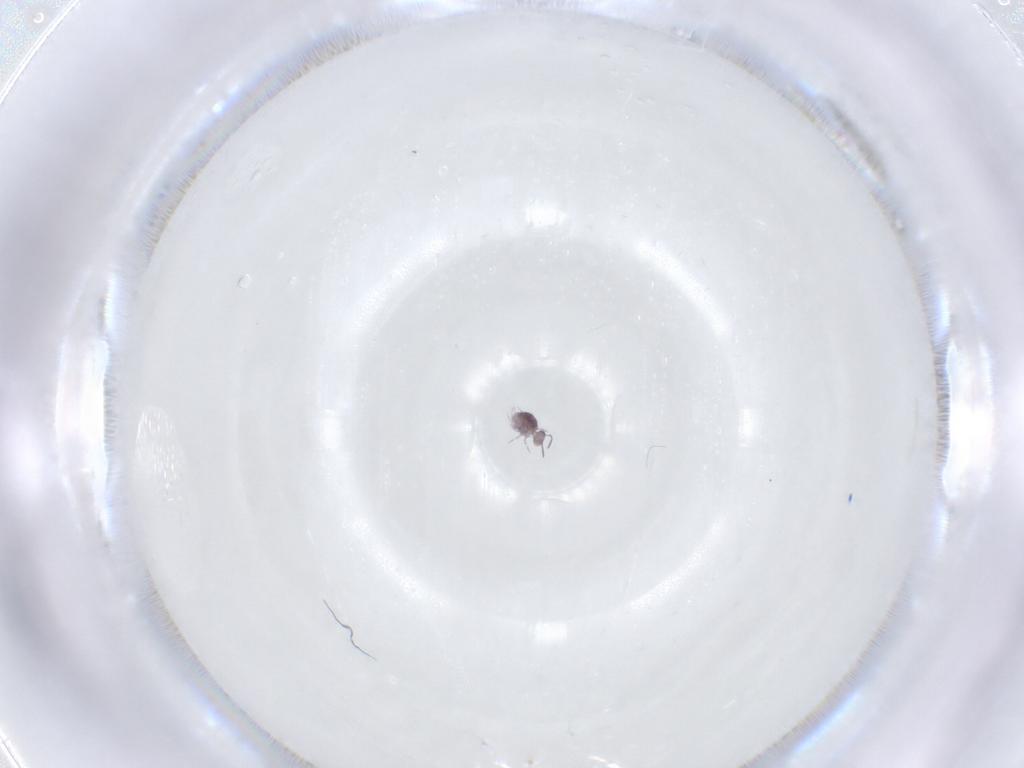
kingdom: Animalia
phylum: Arthropoda
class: Collembola
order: Symphypleona
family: Sminthurididae
